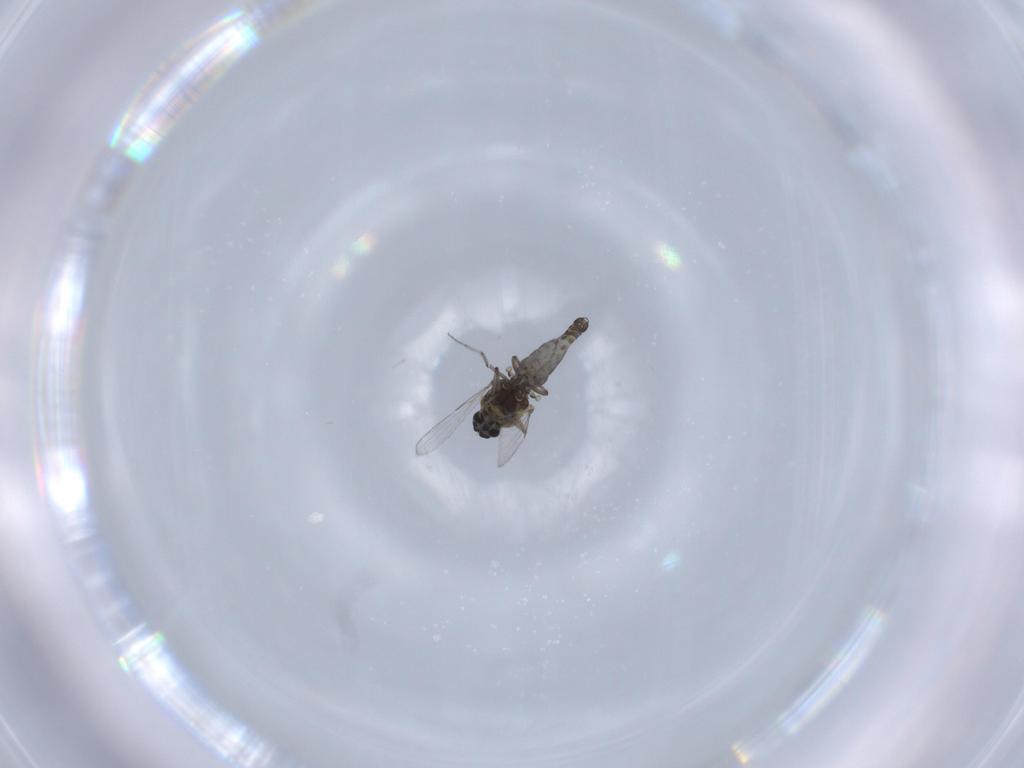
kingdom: Animalia
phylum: Arthropoda
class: Insecta
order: Diptera
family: Ceratopogonidae
